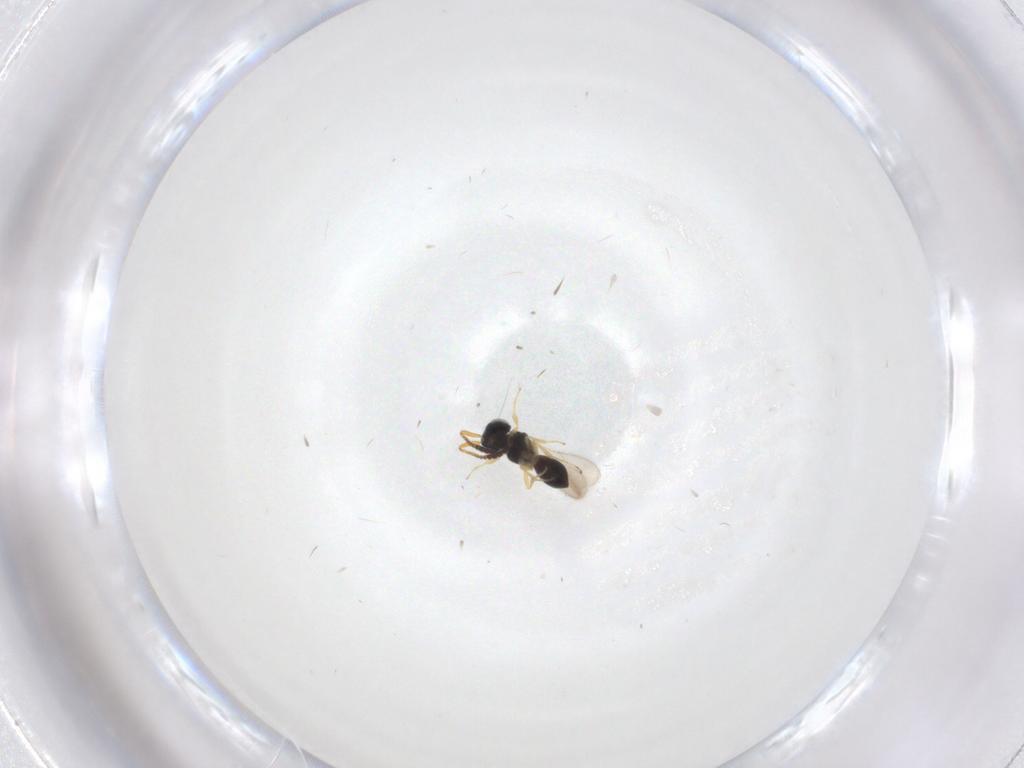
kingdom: Animalia
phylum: Arthropoda
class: Insecta
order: Hymenoptera
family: Scelionidae
